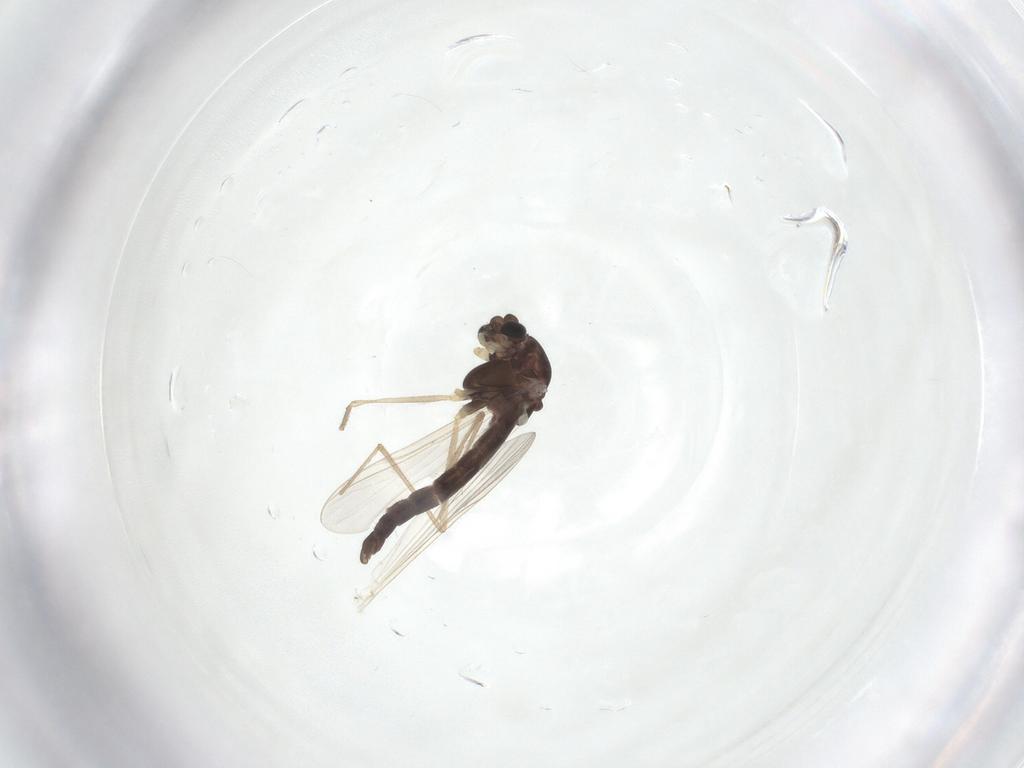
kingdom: Animalia
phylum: Arthropoda
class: Insecta
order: Diptera
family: Chironomidae
